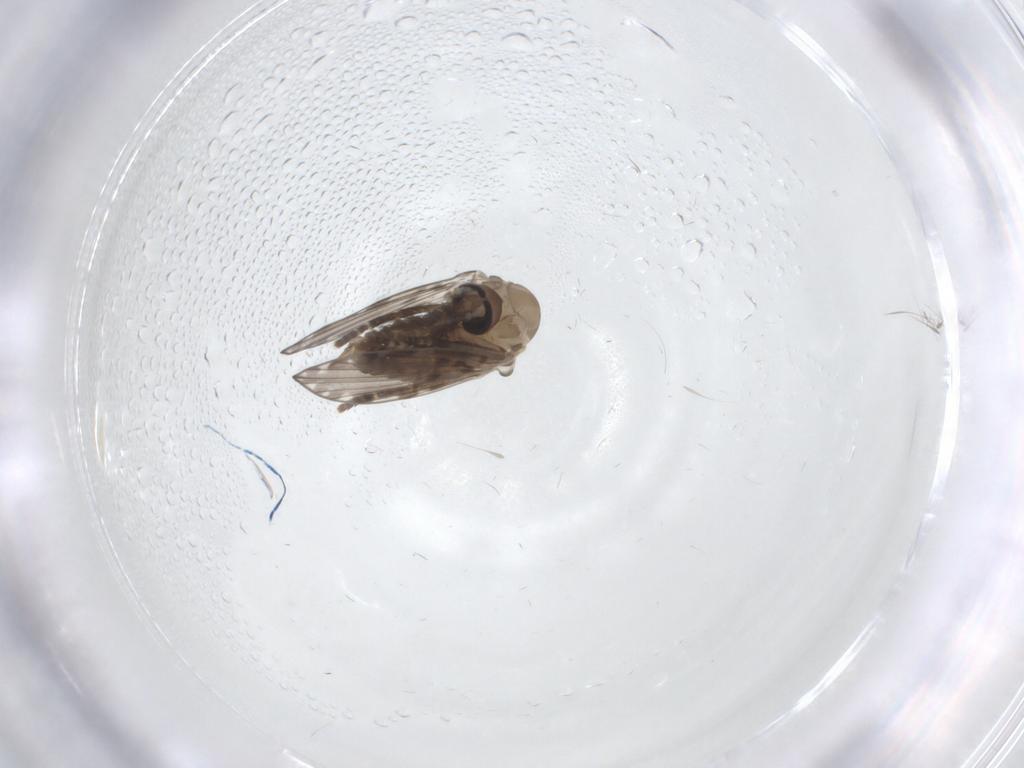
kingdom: Animalia
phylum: Arthropoda
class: Insecta
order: Diptera
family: Psychodidae
